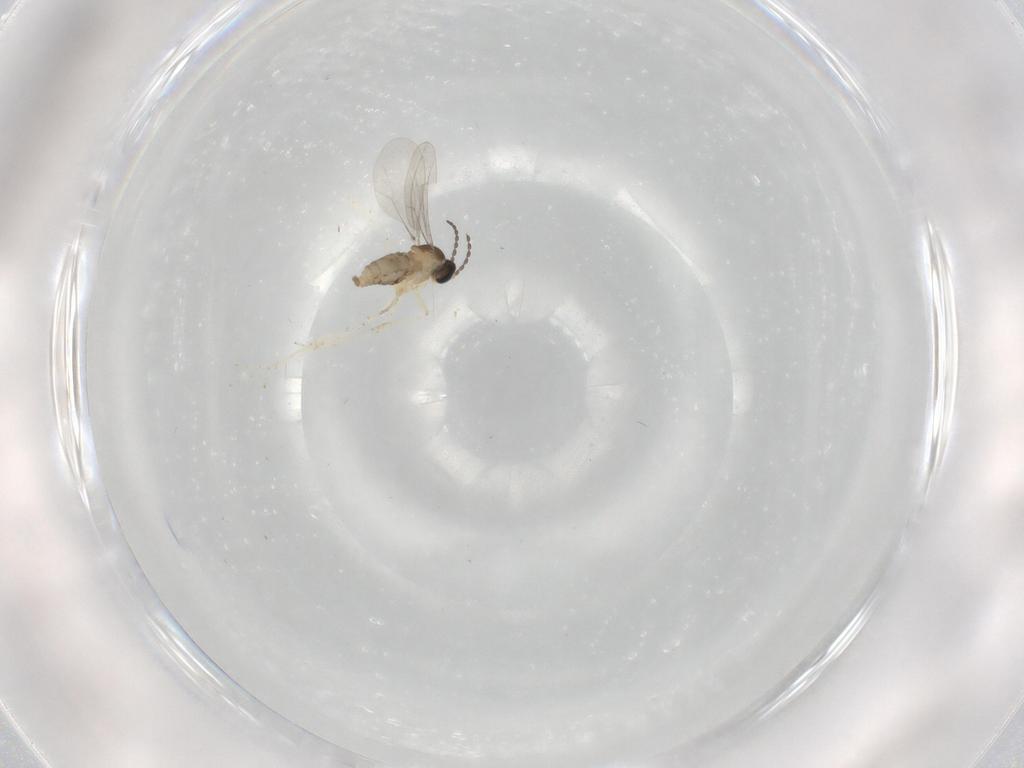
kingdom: Animalia
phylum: Arthropoda
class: Insecta
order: Diptera
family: Cecidomyiidae
